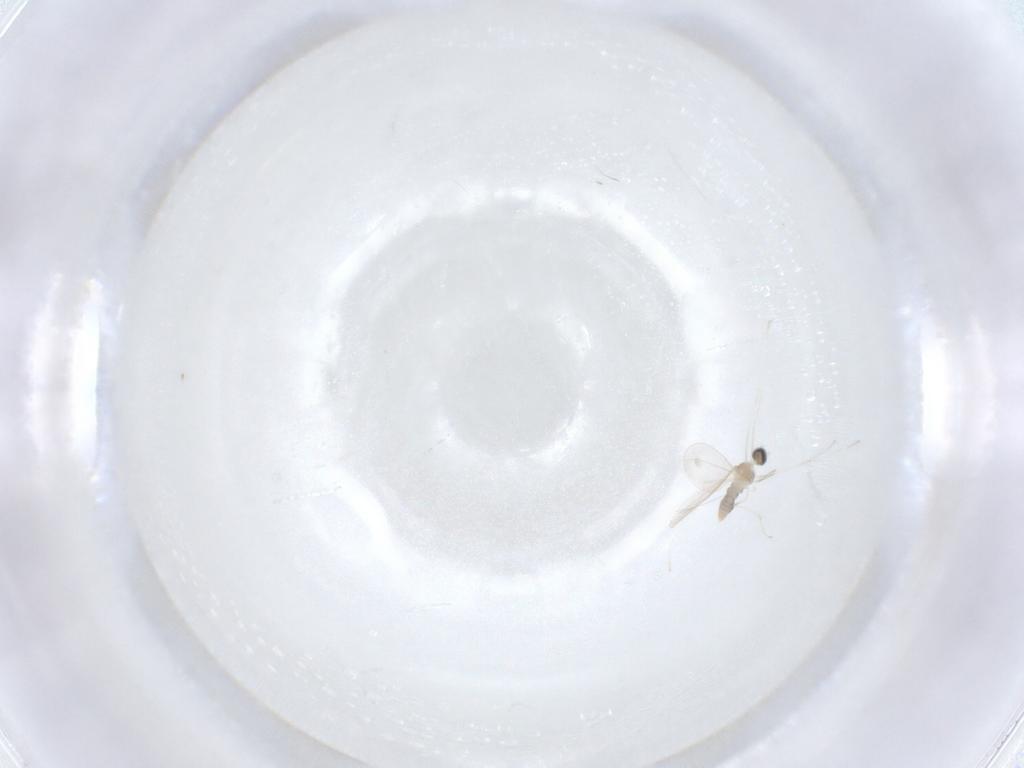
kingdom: Animalia
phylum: Arthropoda
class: Insecta
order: Diptera
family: Cecidomyiidae
